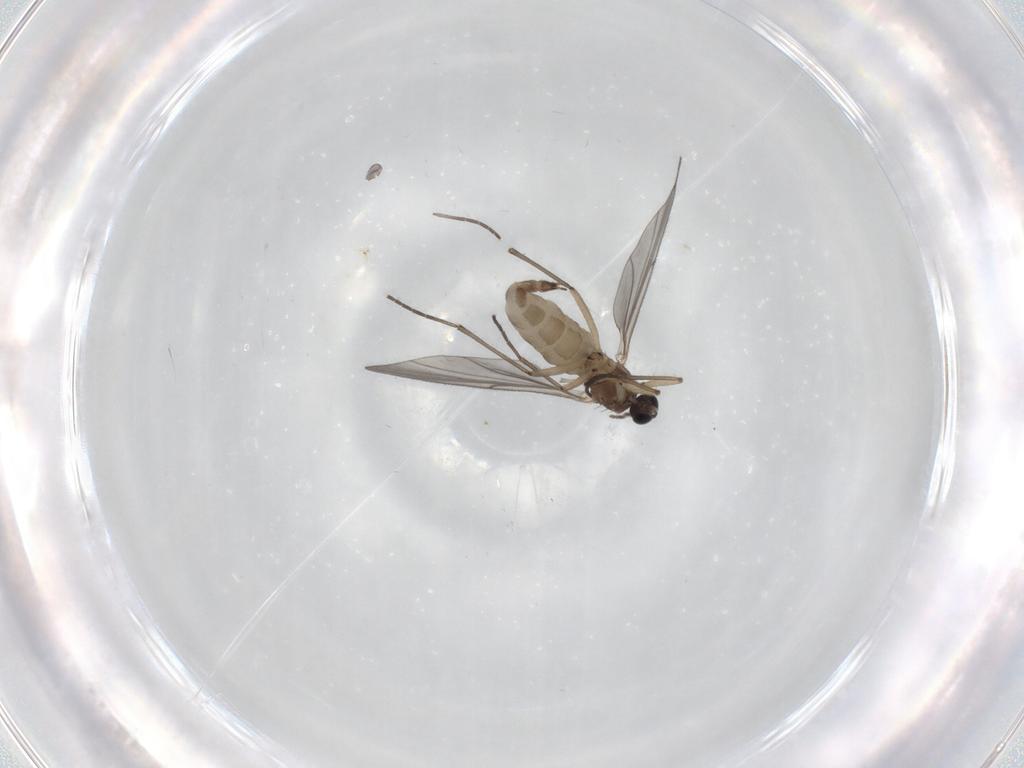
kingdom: Animalia
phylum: Arthropoda
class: Insecta
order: Diptera
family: Sciaridae
